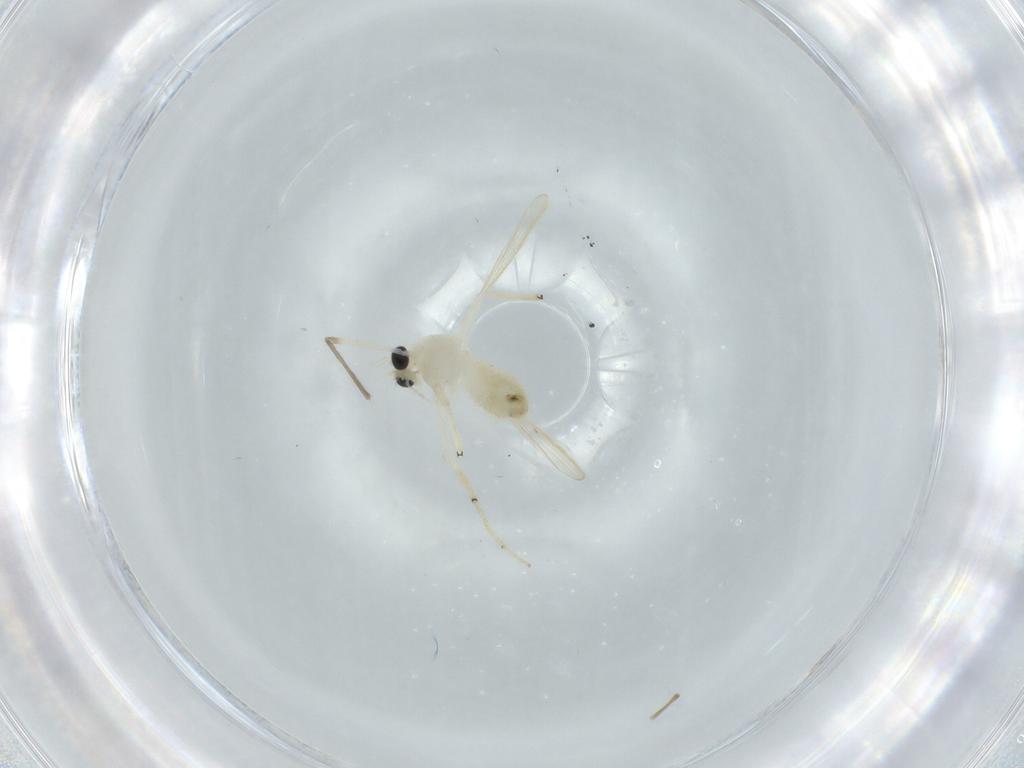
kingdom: Animalia
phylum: Arthropoda
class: Insecta
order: Diptera
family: Chironomidae
